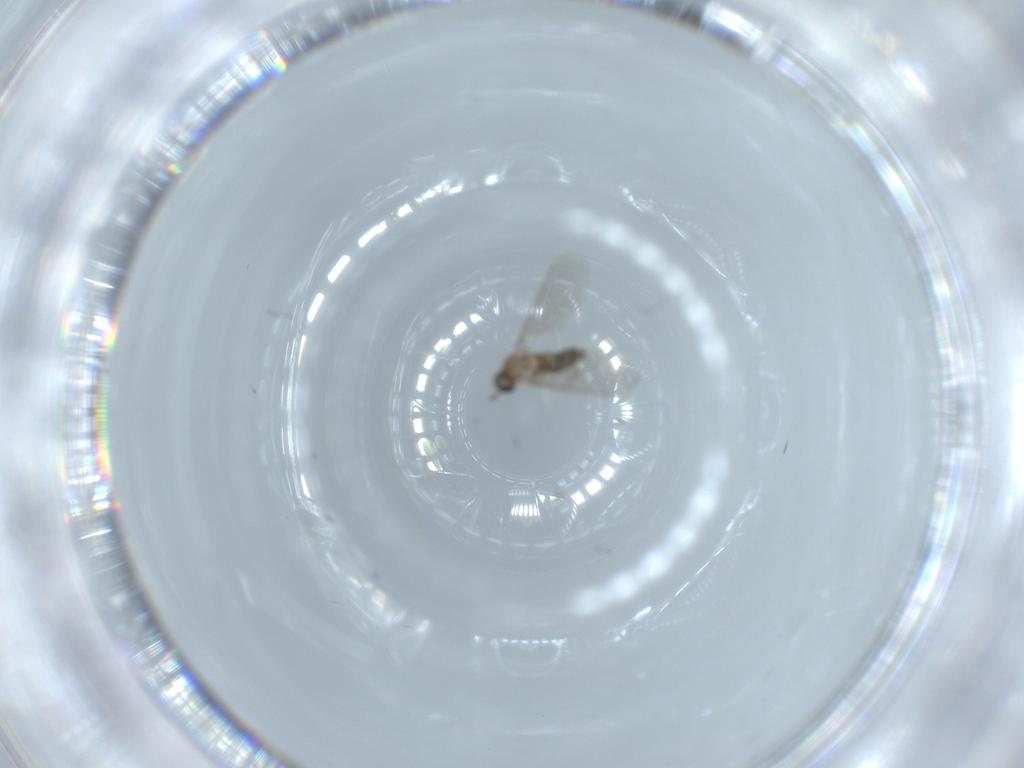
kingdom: Animalia
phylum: Arthropoda
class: Insecta
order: Diptera
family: Cecidomyiidae
